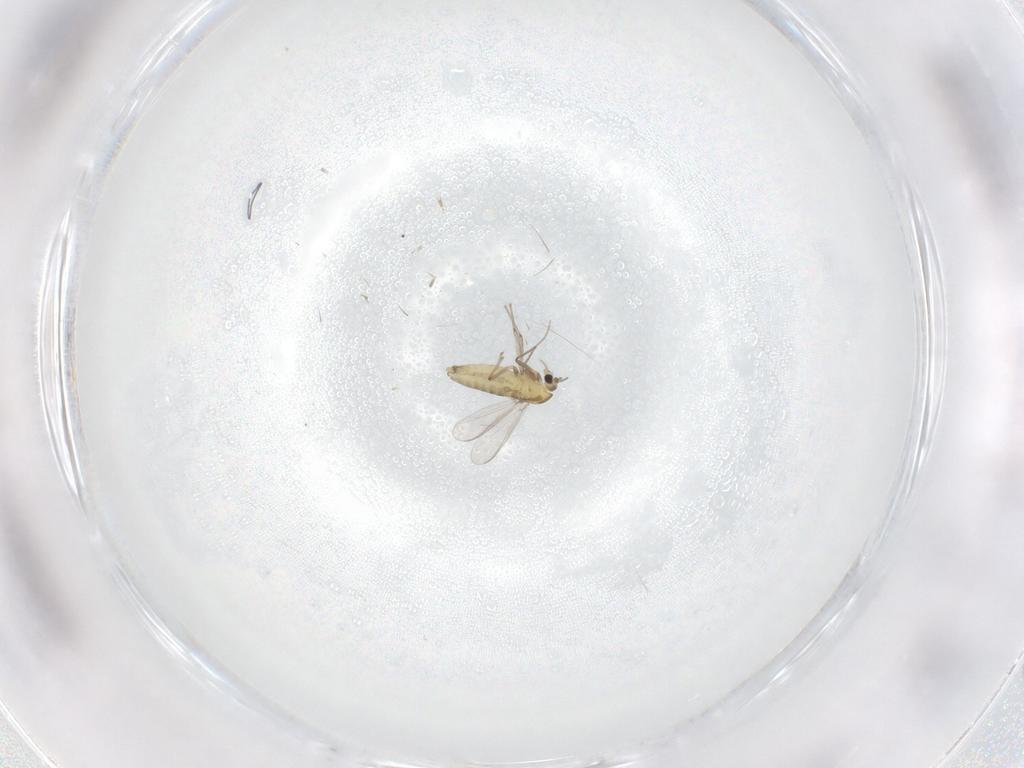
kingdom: Animalia
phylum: Arthropoda
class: Insecta
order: Diptera
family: Chironomidae
